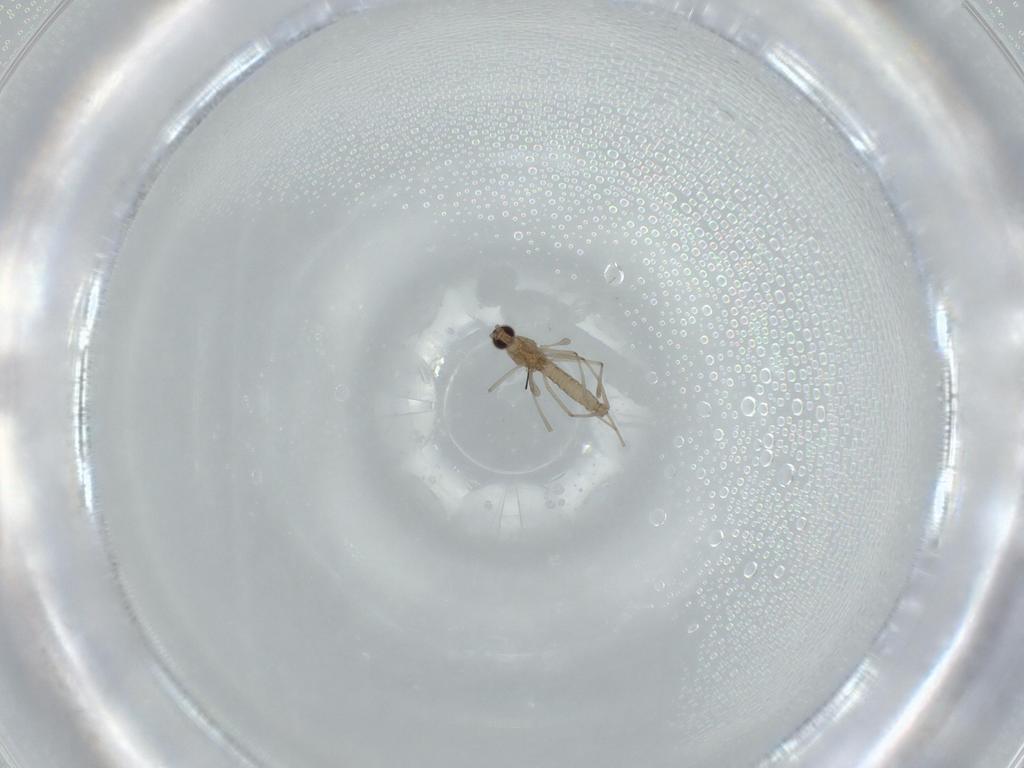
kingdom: Animalia
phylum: Arthropoda
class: Insecta
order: Diptera
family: Cecidomyiidae
